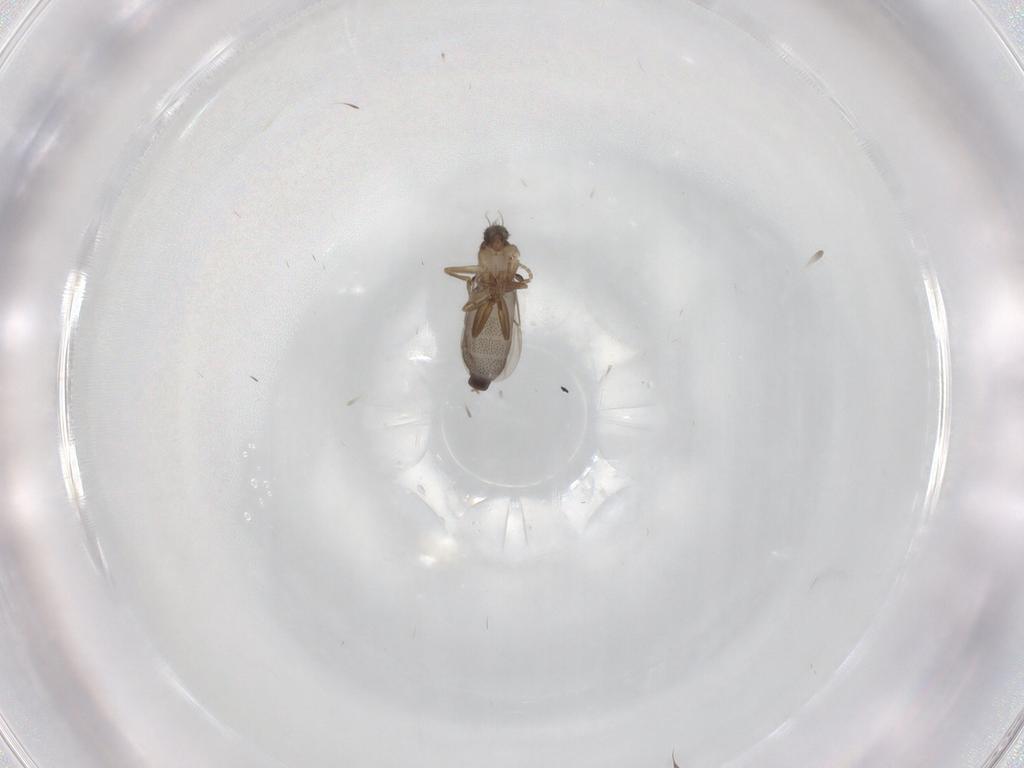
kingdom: Animalia
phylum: Arthropoda
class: Insecta
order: Diptera
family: Phoridae
